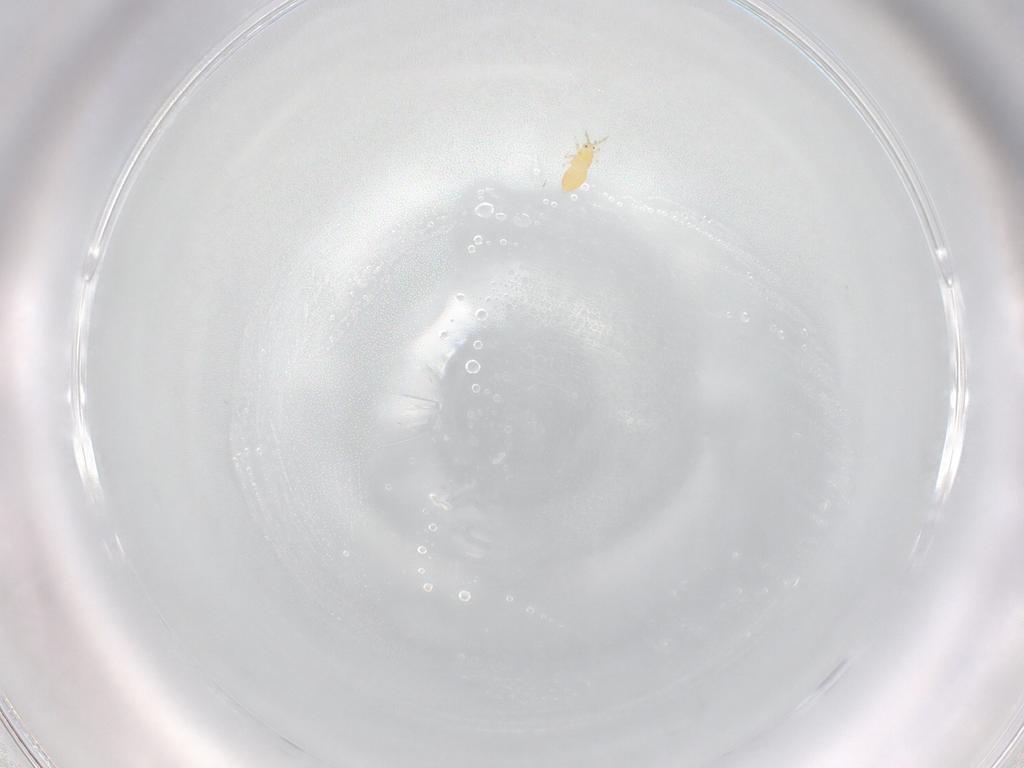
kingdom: Animalia
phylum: Arthropoda
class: Insecta
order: Thysanoptera
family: Thripidae
